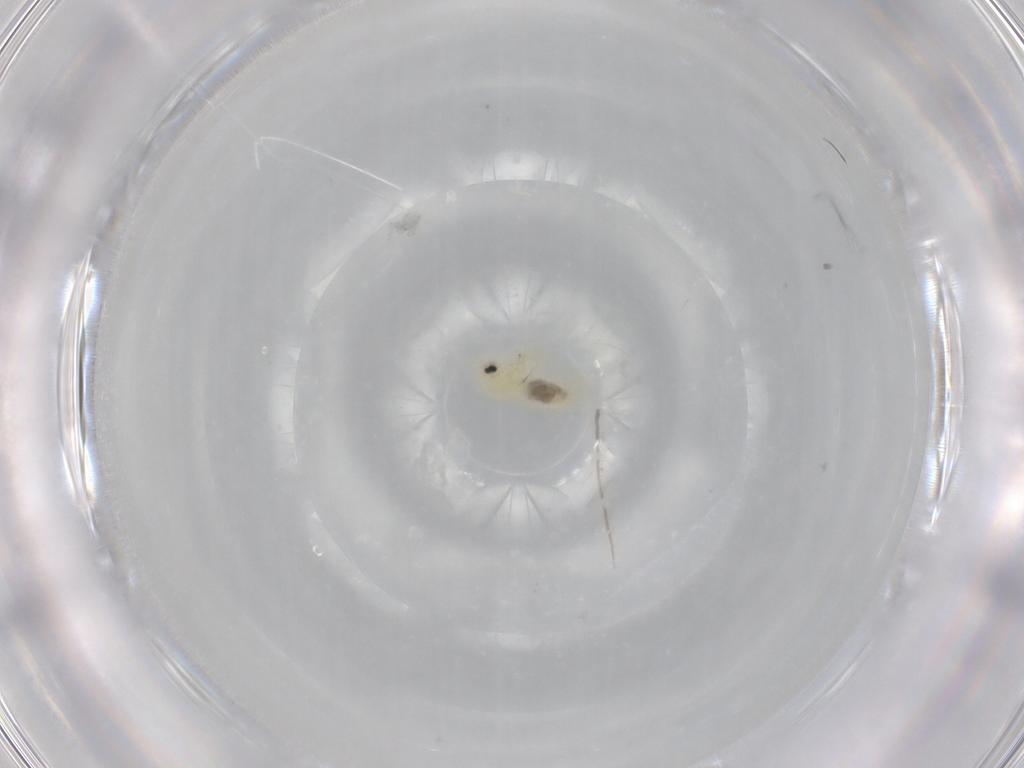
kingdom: Animalia
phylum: Arthropoda
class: Insecta
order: Hemiptera
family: Aleyrodidae
